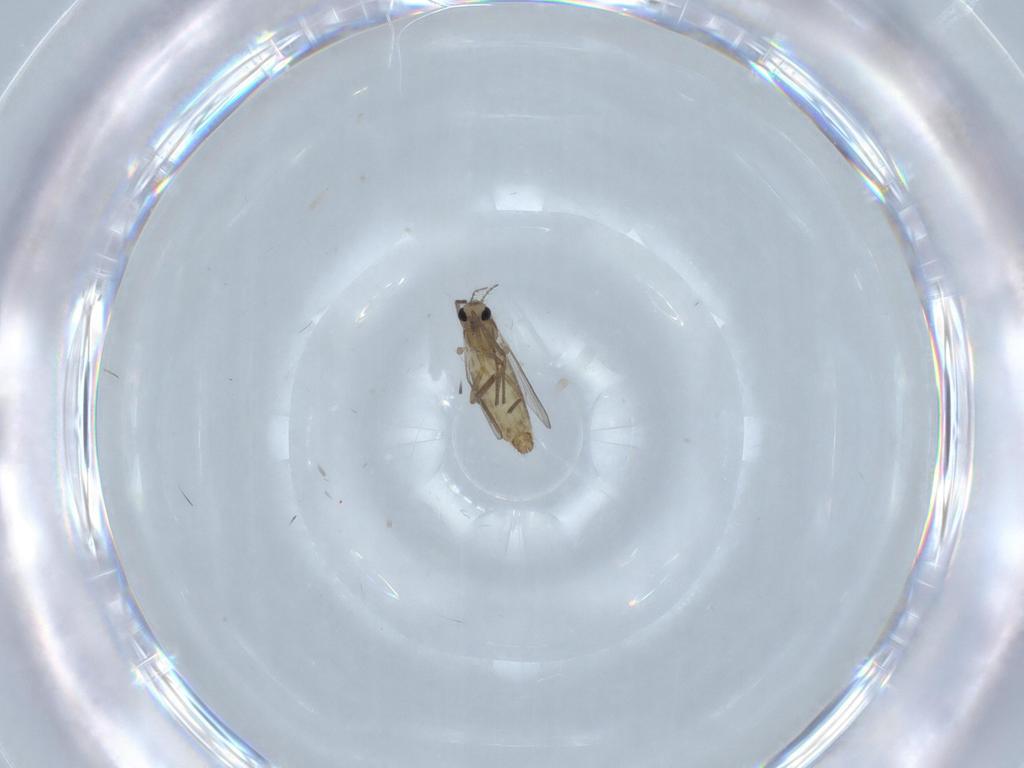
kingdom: Animalia
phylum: Arthropoda
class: Insecta
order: Diptera
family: Chironomidae
